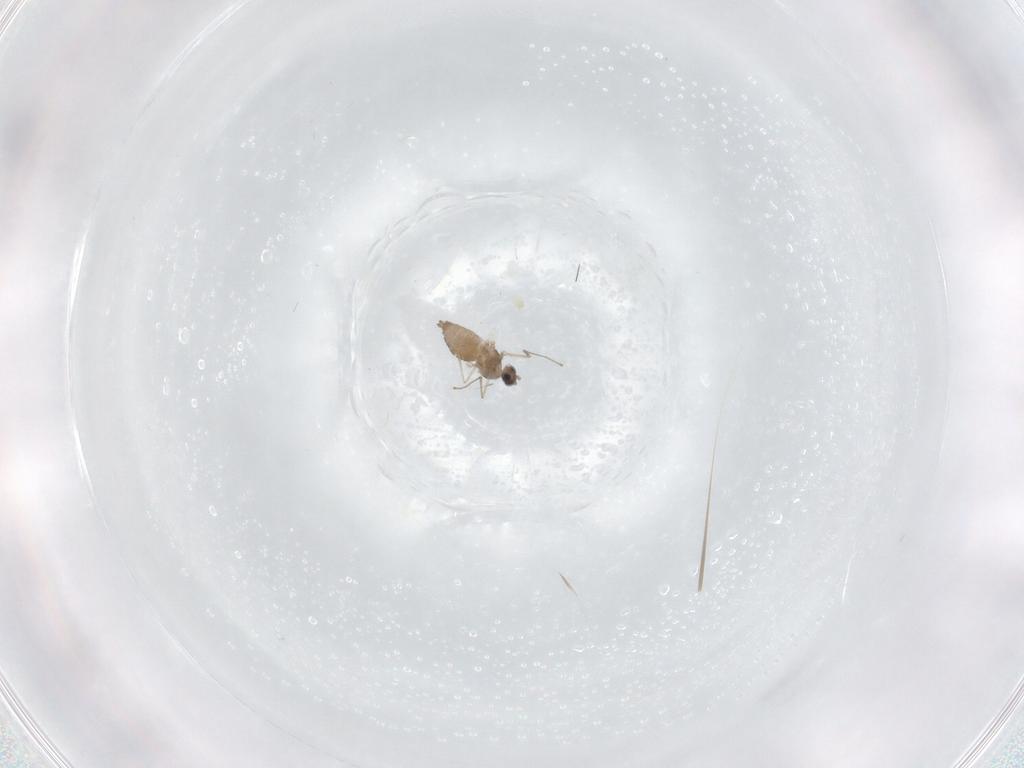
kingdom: Animalia
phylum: Arthropoda
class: Insecta
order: Diptera
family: Cecidomyiidae
